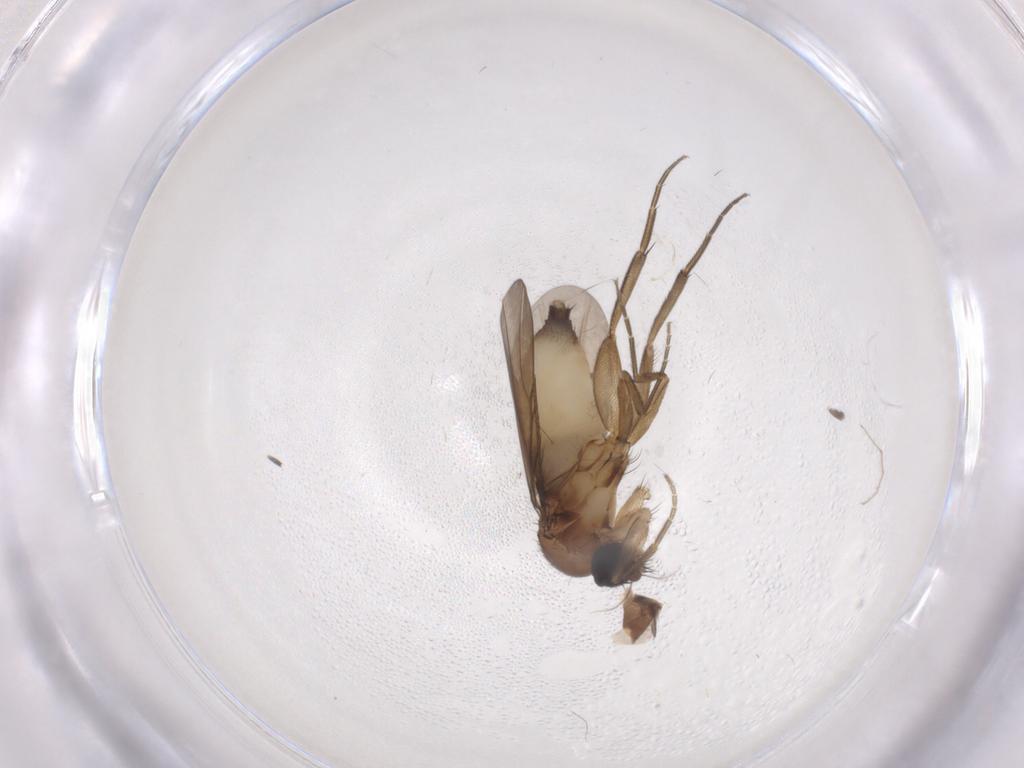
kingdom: Animalia
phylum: Arthropoda
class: Insecta
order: Diptera
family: Phoridae
